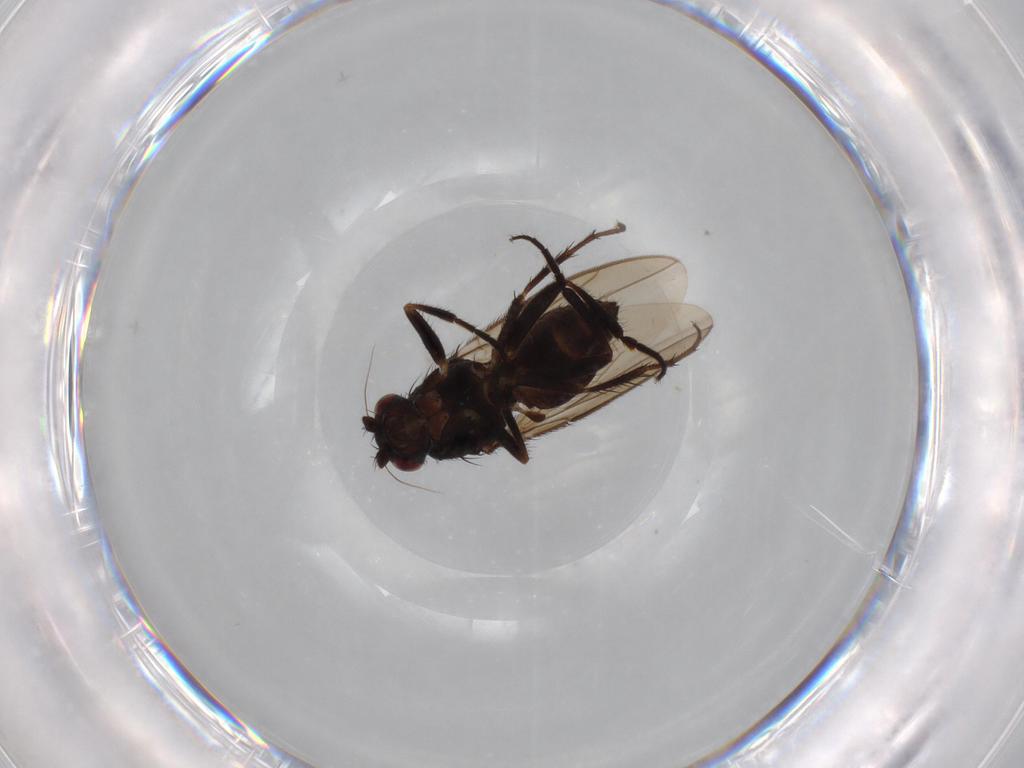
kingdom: Animalia
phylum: Arthropoda
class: Insecta
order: Diptera
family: Sphaeroceridae
